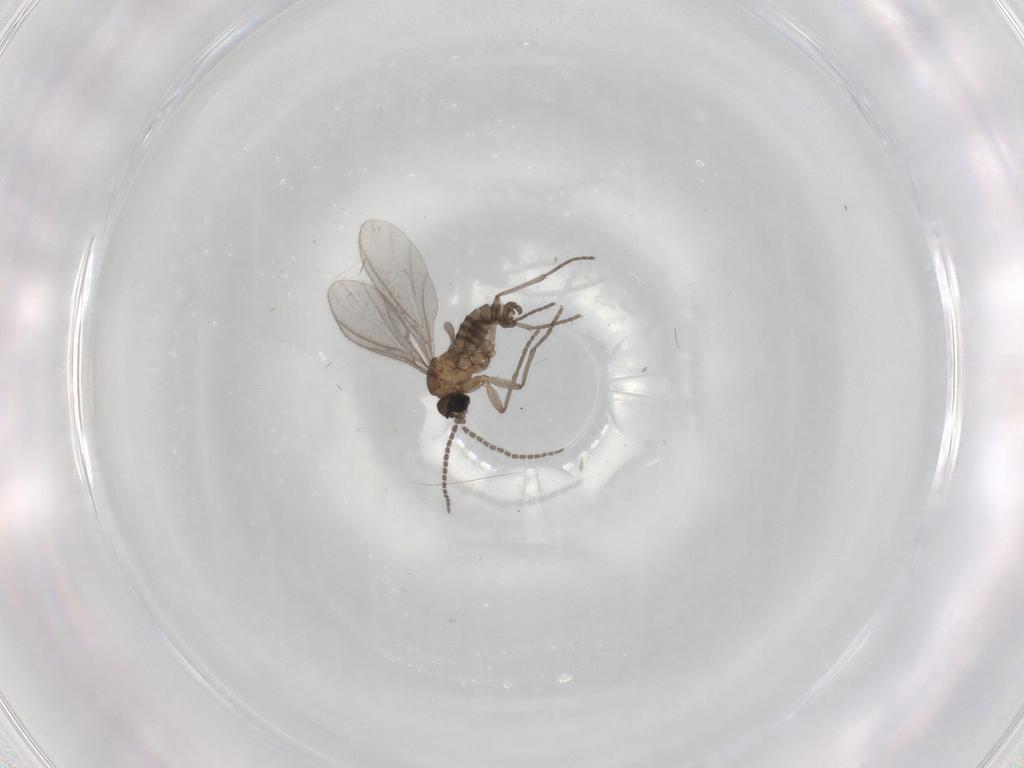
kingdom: Animalia
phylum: Arthropoda
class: Insecta
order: Diptera
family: Sciaridae
